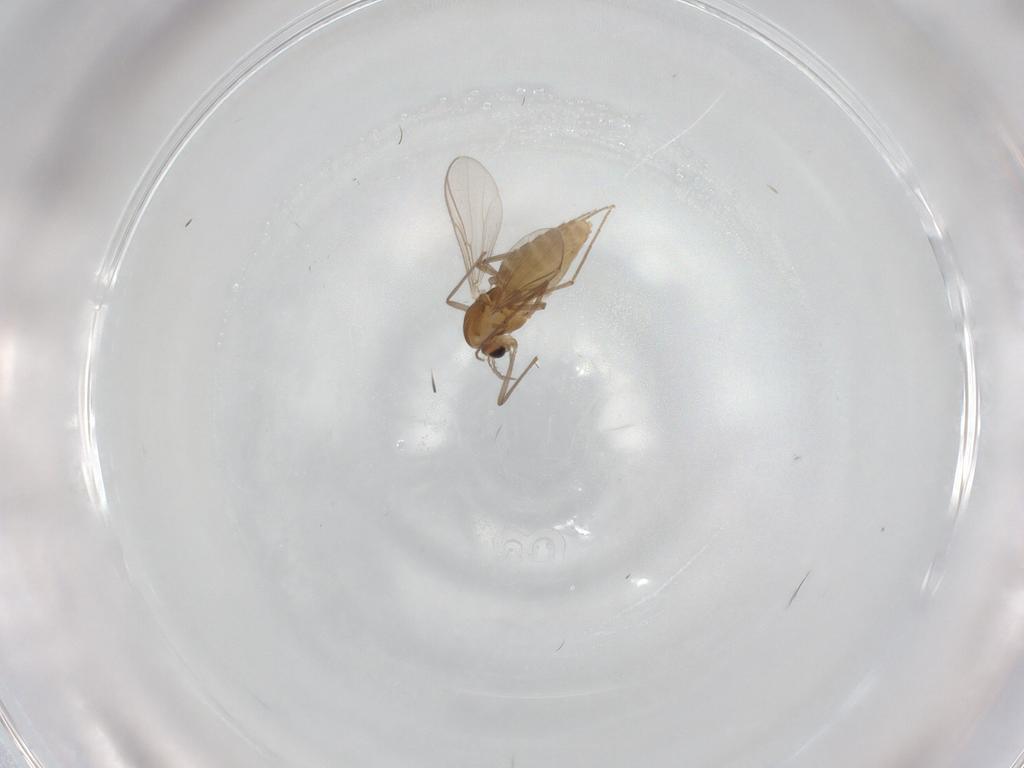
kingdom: Animalia
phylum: Arthropoda
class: Insecta
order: Diptera
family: Chironomidae
